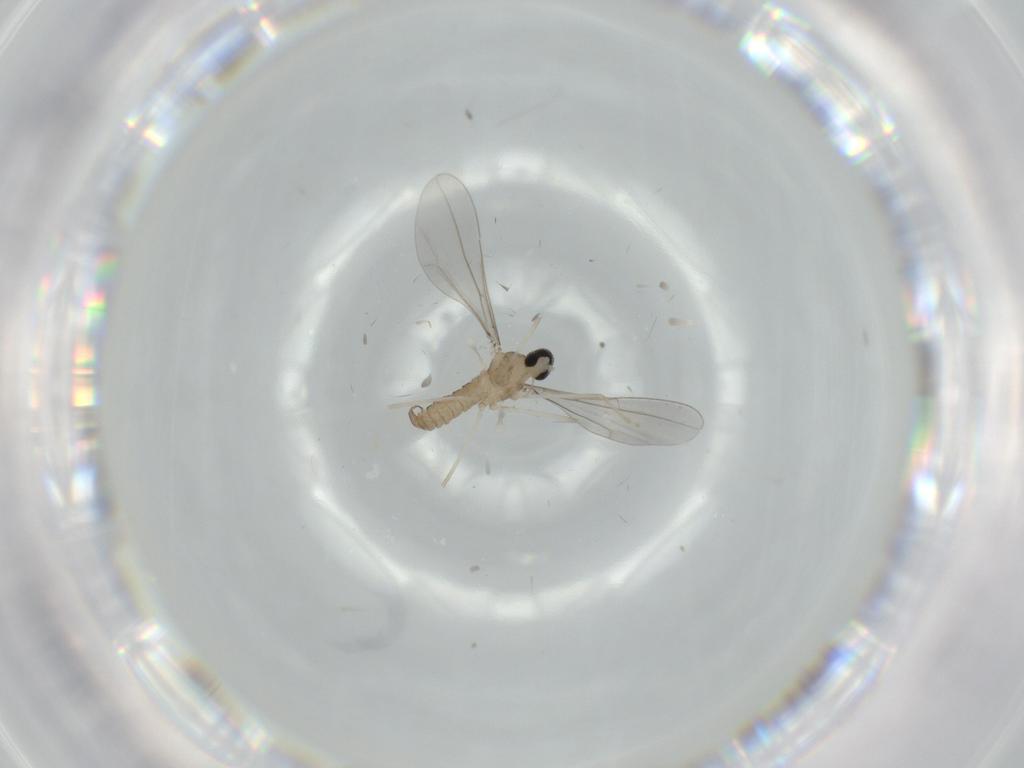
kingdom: Animalia
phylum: Arthropoda
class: Insecta
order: Diptera
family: Cecidomyiidae
